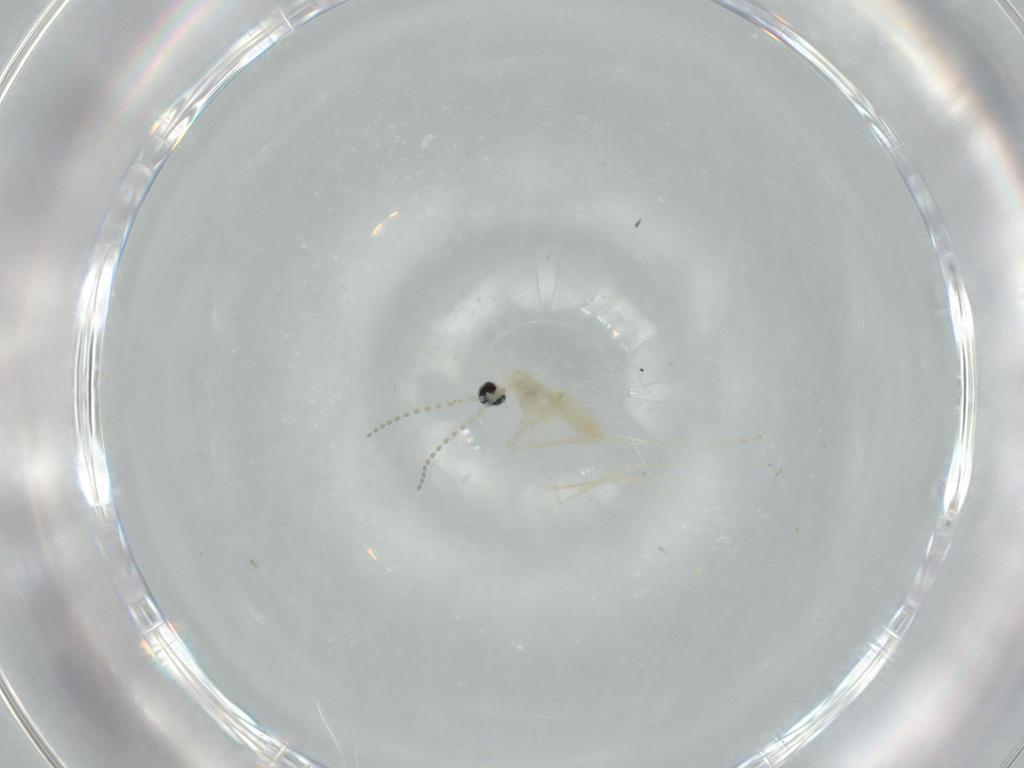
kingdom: Animalia
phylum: Arthropoda
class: Insecta
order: Diptera
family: Cecidomyiidae
